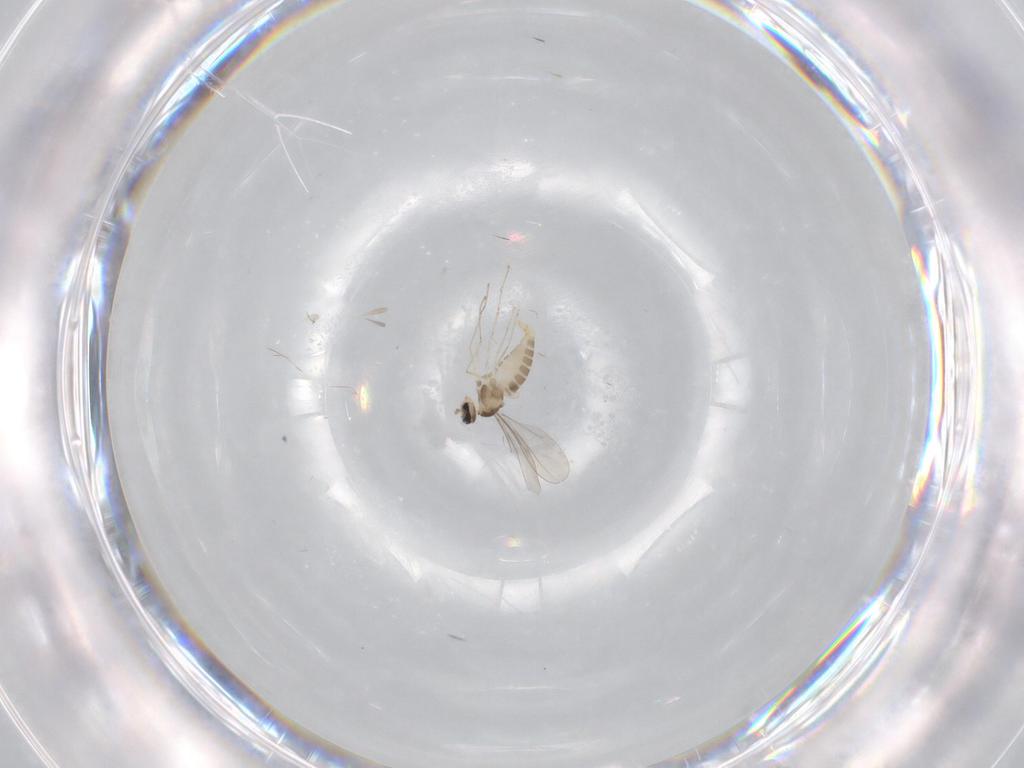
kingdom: Animalia
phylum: Arthropoda
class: Insecta
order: Diptera
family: Cecidomyiidae
